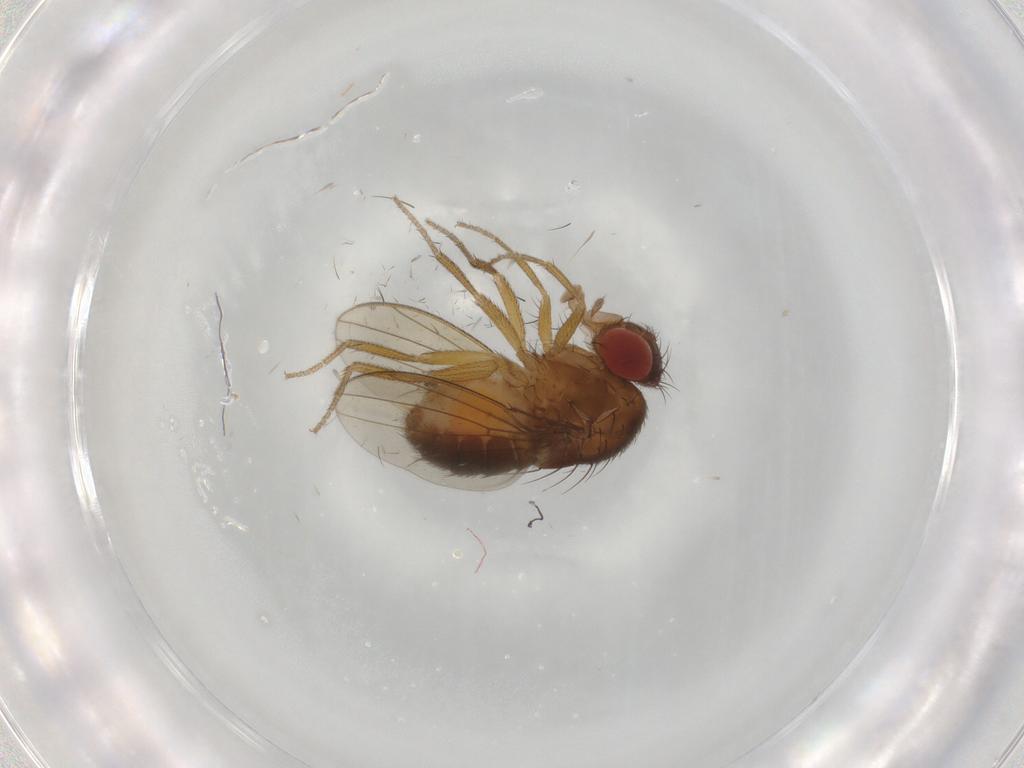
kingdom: Animalia
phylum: Arthropoda
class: Insecta
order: Diptera
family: Drosophilidae
